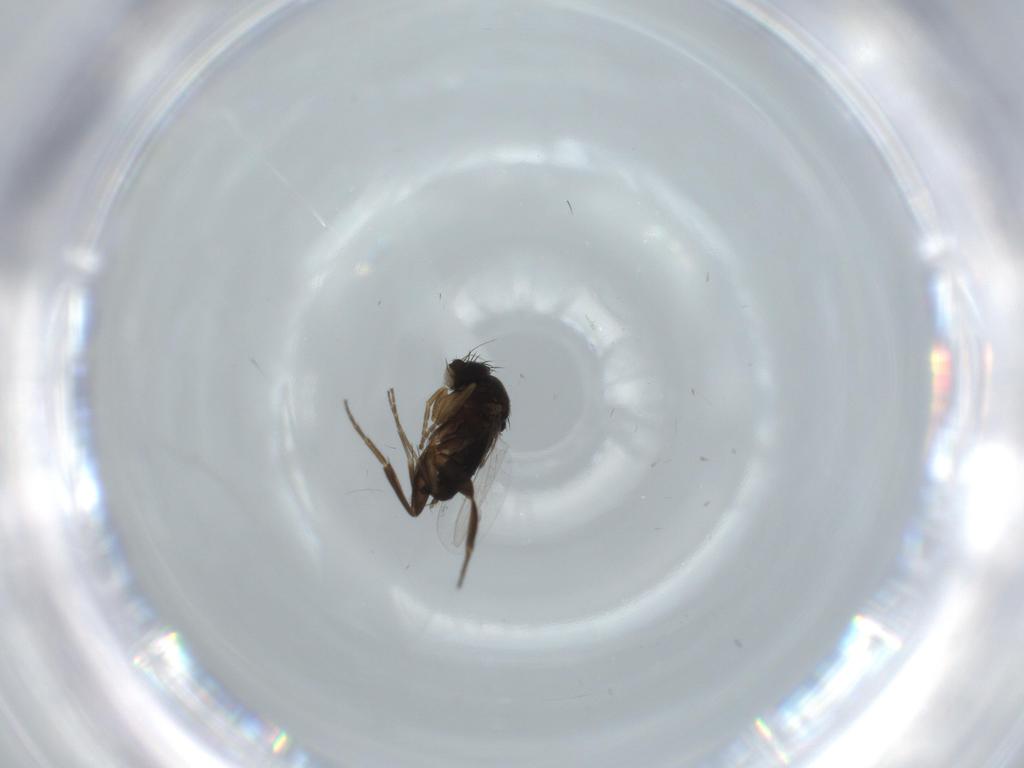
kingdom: Animalia
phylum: Arthropoda
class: Insecta
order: Diptera
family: Phoridae
